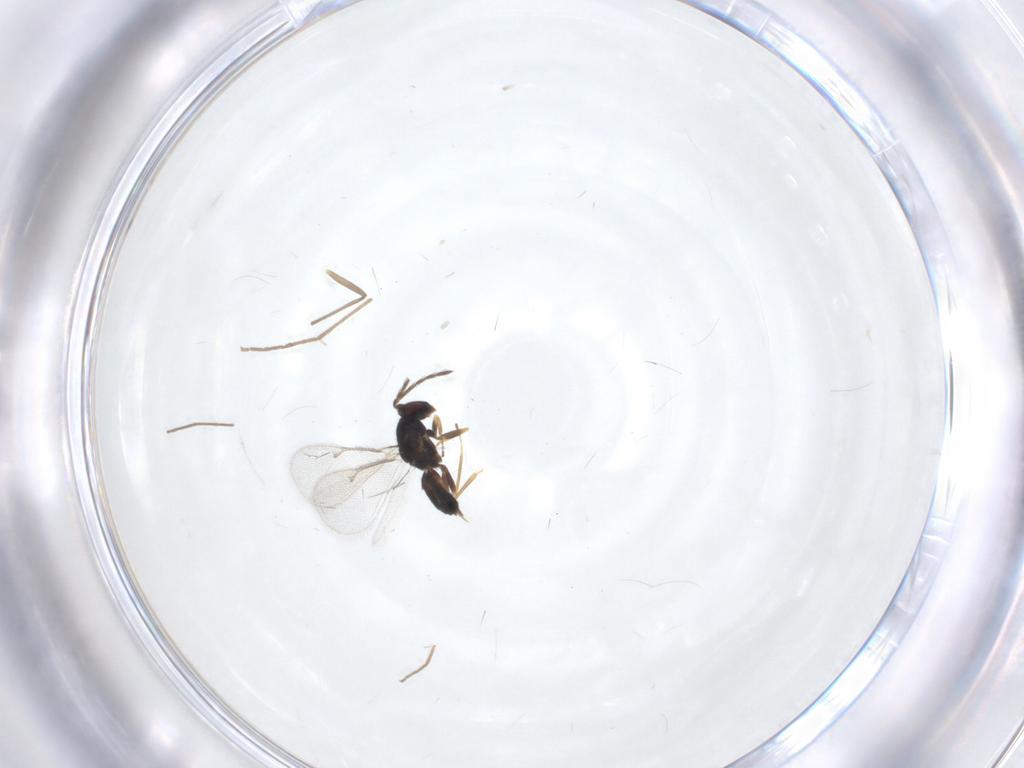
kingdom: Animalia
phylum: Arthropoda
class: Insecta
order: Hymenoptera
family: Eulophidae
